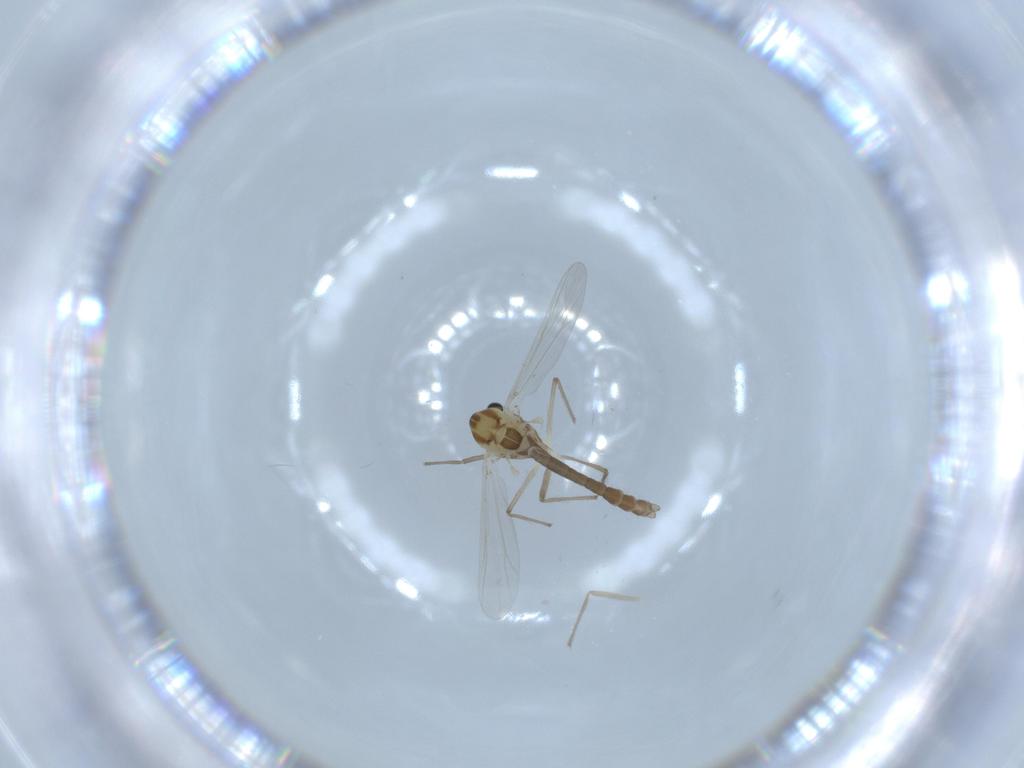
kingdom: Animalia
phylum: Arthropoda
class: Insecta
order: Diptera
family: Chironomidae
